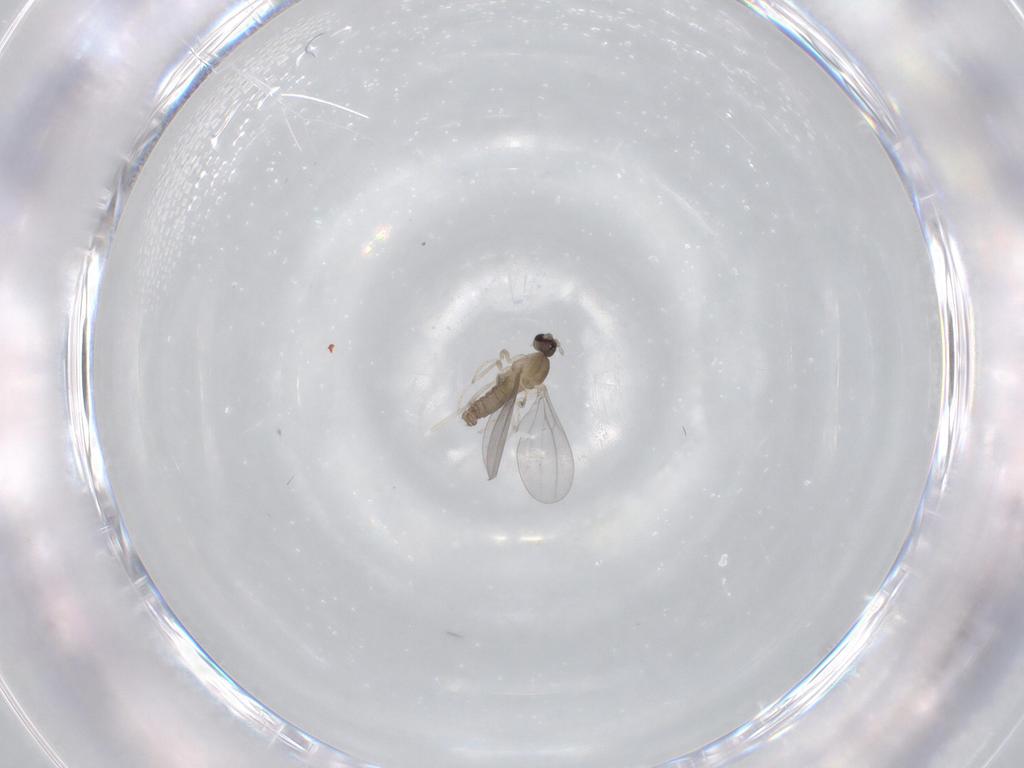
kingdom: Animalia
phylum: Arthropoda
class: Insecta
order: Diptera
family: Cecidomyiidae
